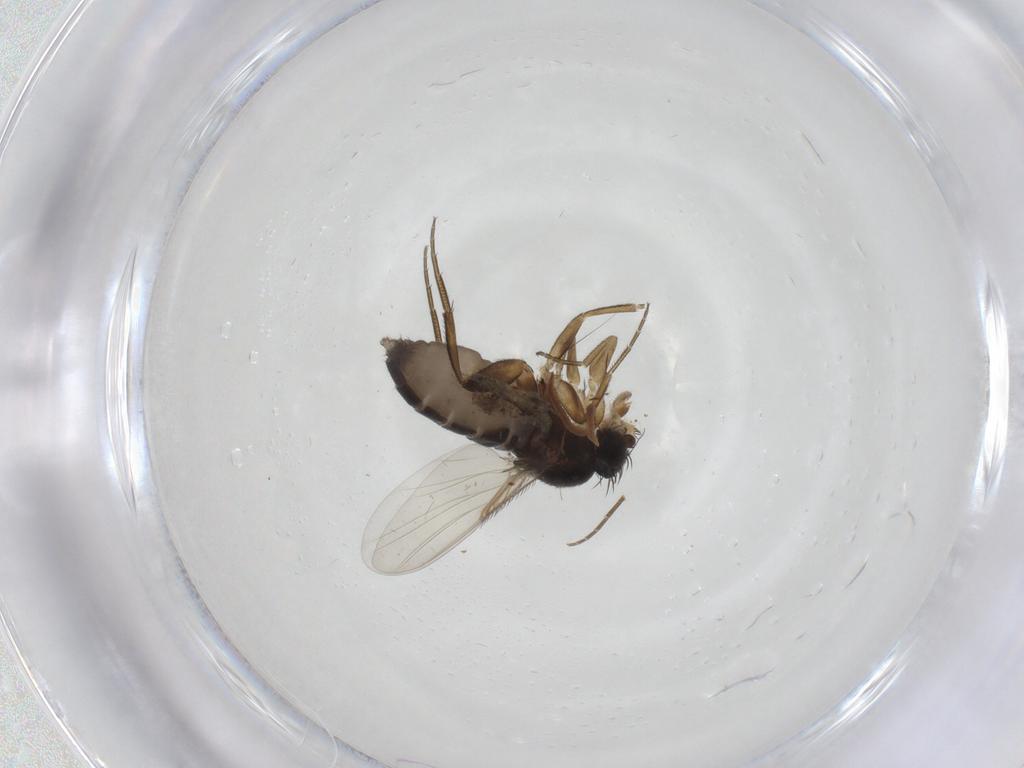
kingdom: Animalia
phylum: Arthropoda
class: Insecta
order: Diptera
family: Phoridae
